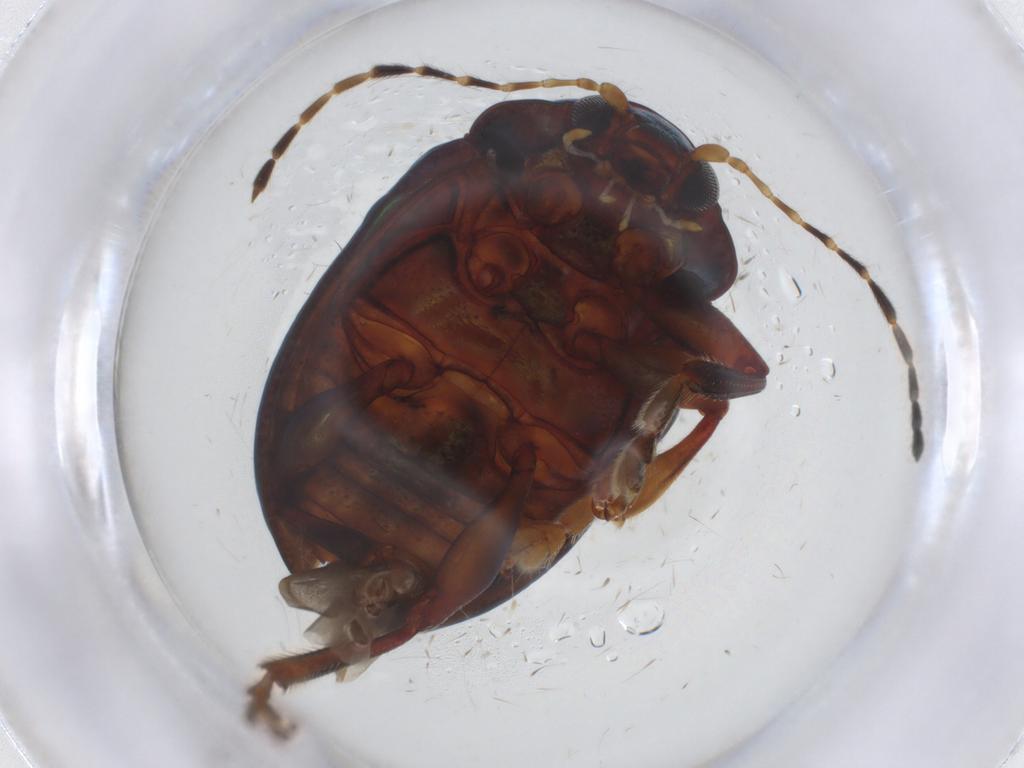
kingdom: Animalia
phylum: Arthropoda
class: Insecta
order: Coleoptera
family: Chrysomelidae
